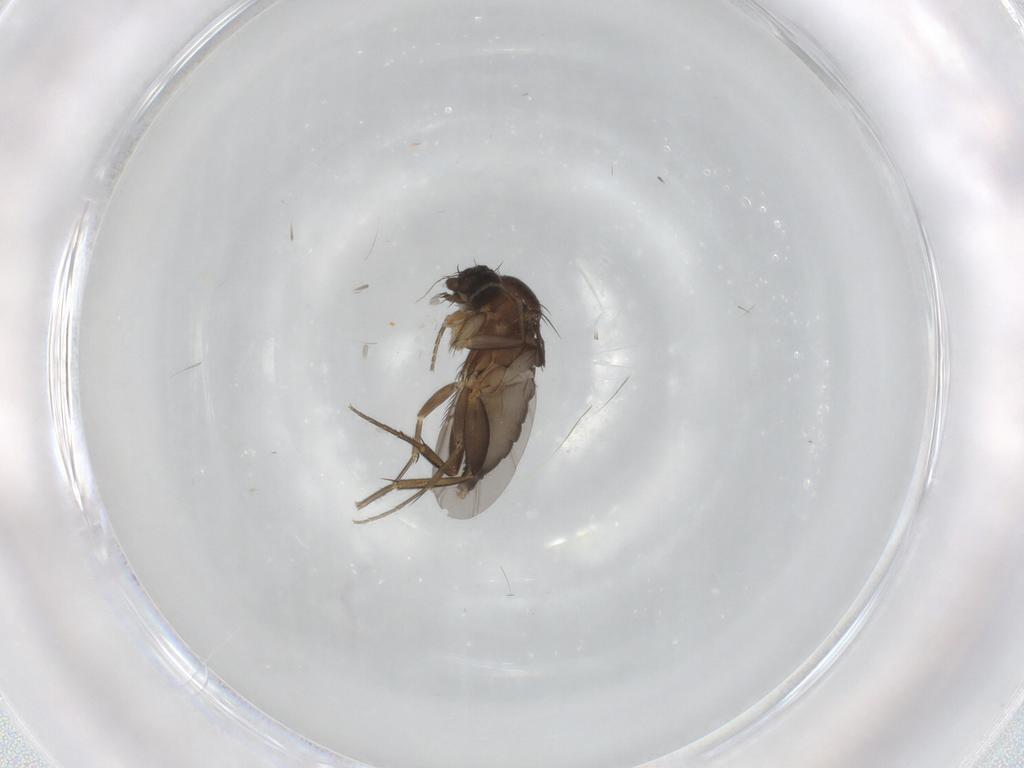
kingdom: Animalia
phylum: Arthropoda
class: Insecta
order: Diptera
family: Phoridae
